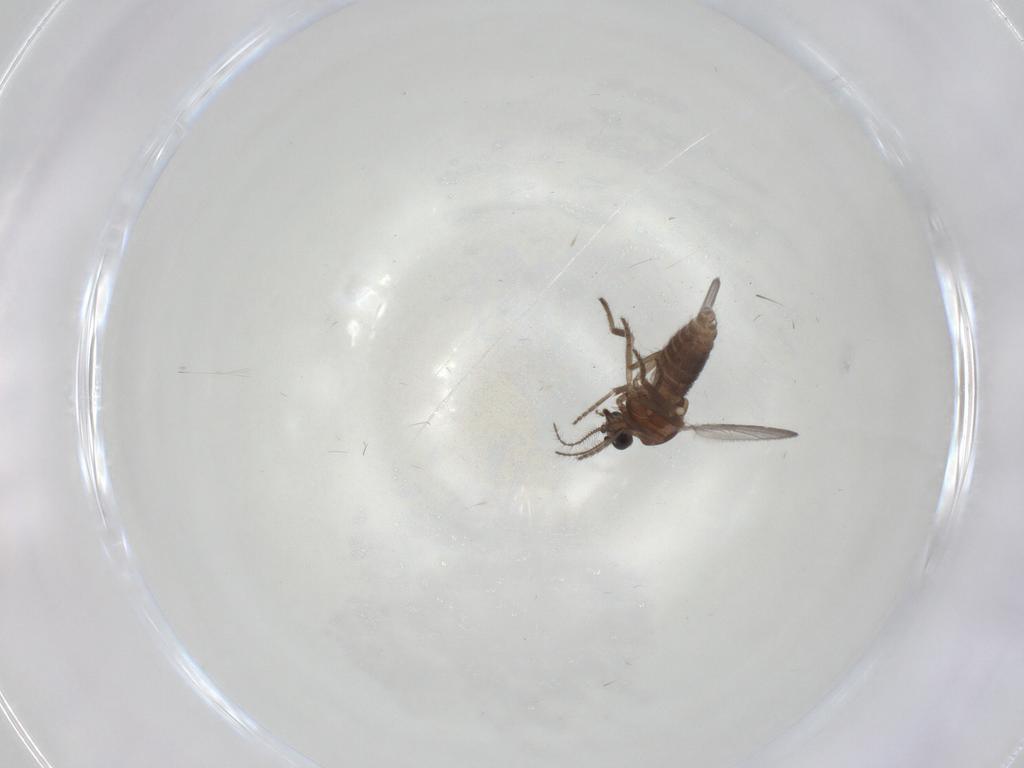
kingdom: Animalia
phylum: Arthropoda
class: Insecta
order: Diptera
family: Ceratopogonidae
